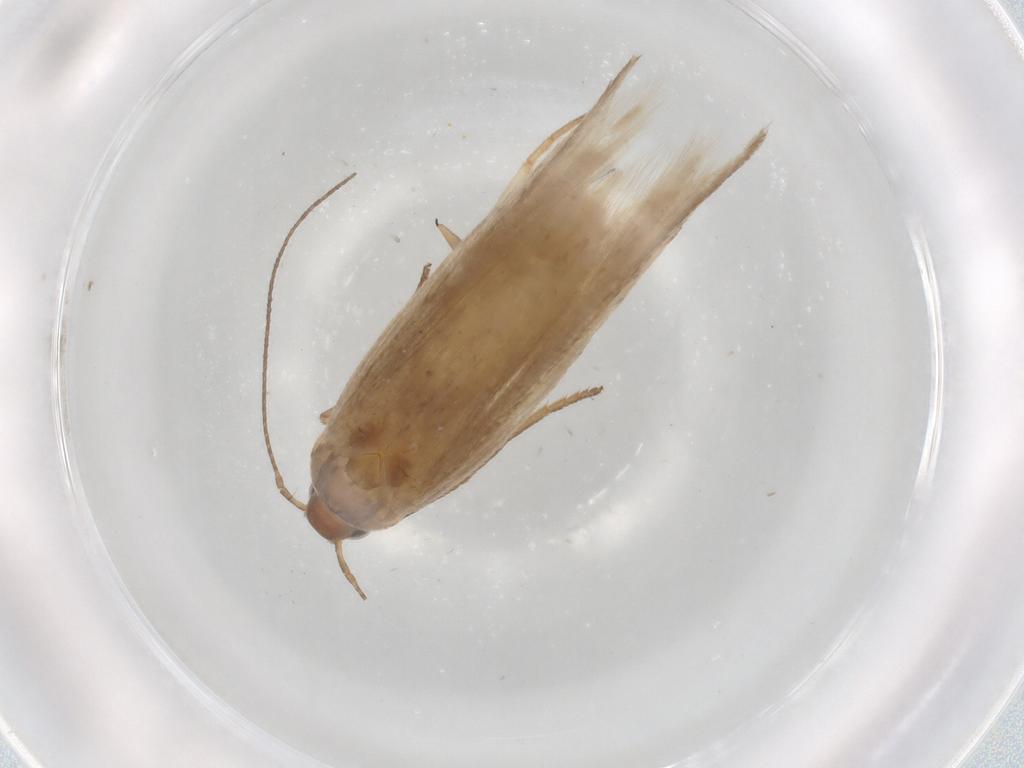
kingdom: Animalia
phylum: Arthropoda
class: Insecta
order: Lepidoptera
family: Gelechiidae
